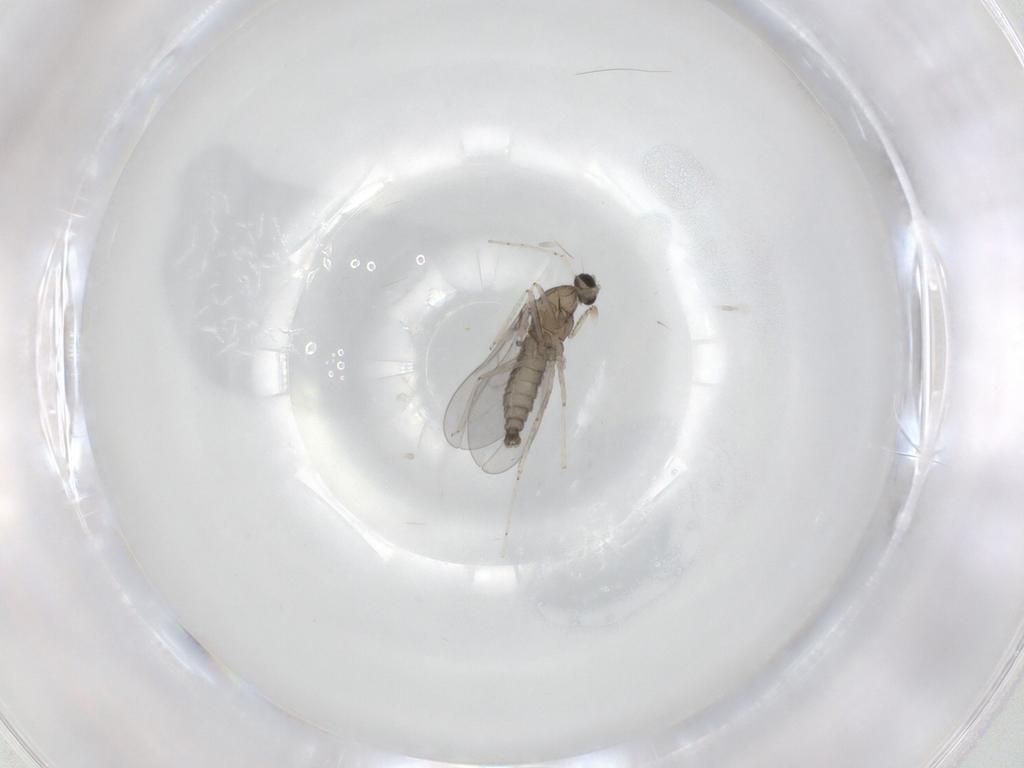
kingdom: Animalia
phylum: Arthropoda
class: Insecta
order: Diptera
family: Cecidomyiidae
